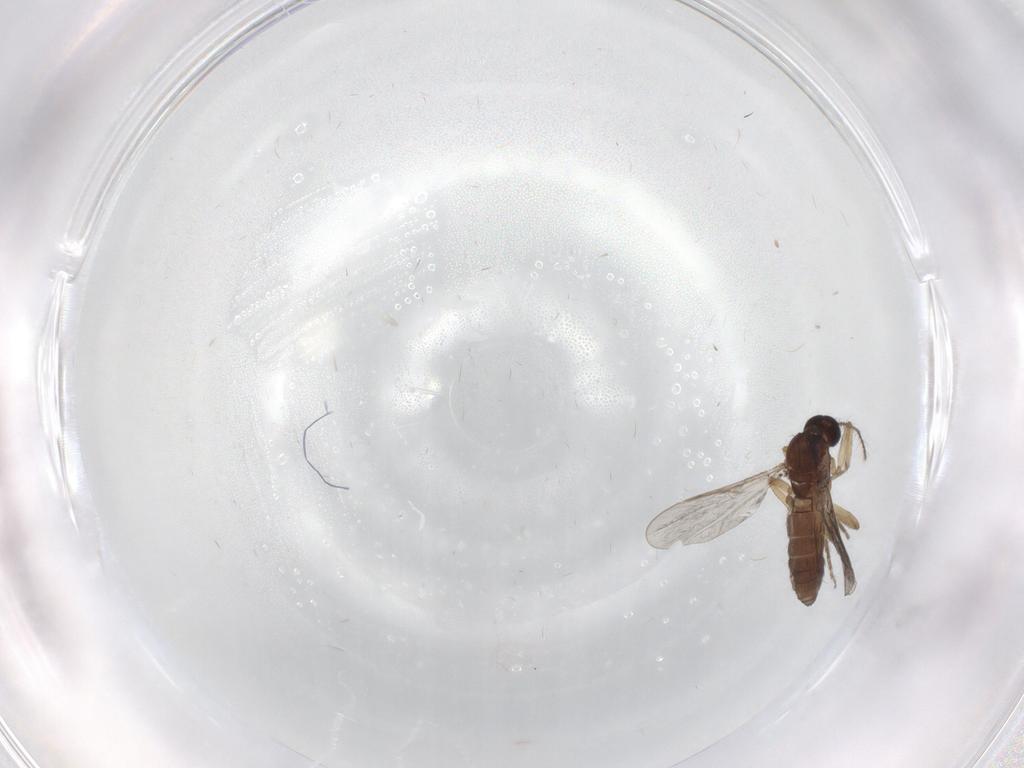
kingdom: Animalia
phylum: Arthropoda
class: Insecta
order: Diptera
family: Ceratopogonidae
